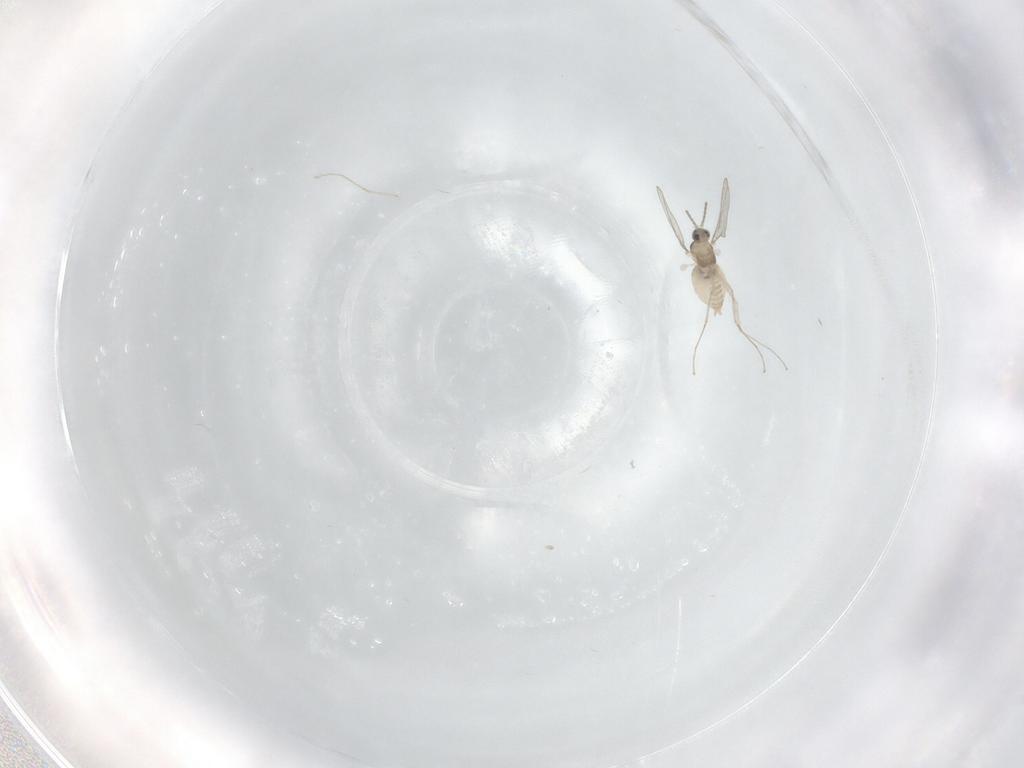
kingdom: Animalia
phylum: Arthropoda
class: Insecta
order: Diptera
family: Cecidomyiidae
